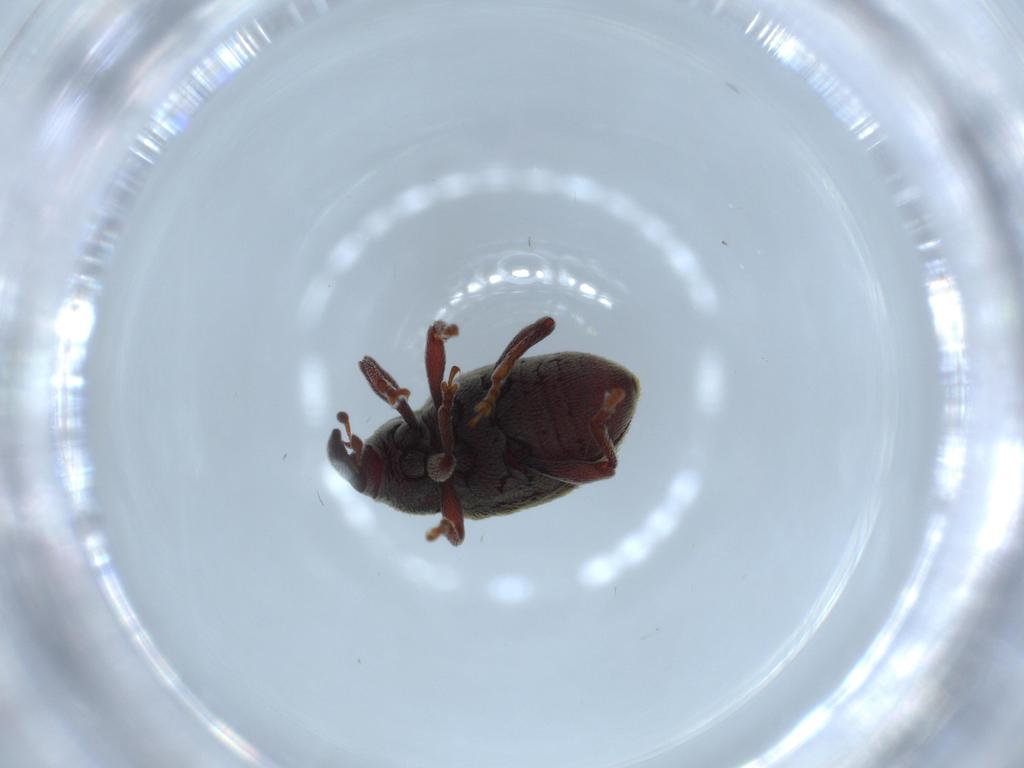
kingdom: Animalia
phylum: Arthropoda
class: Insecta
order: Coleoptera
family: Curculionidae
